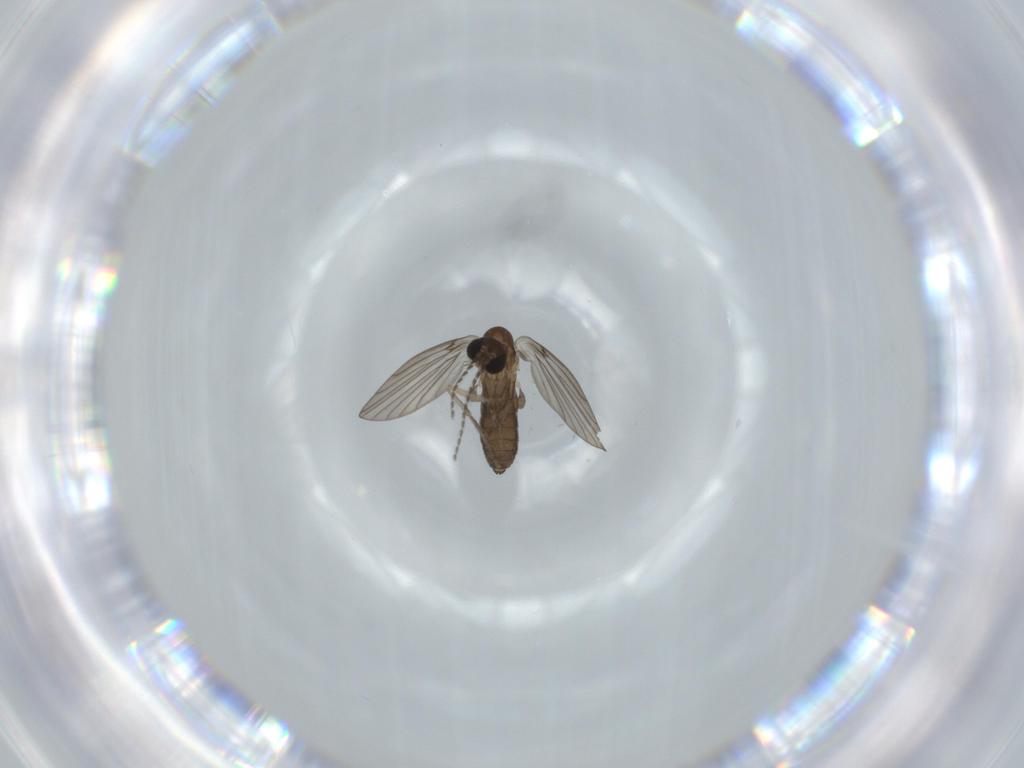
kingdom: Animalia
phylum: Arthropoda
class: Insecta
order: Diptera
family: Psychodidae
